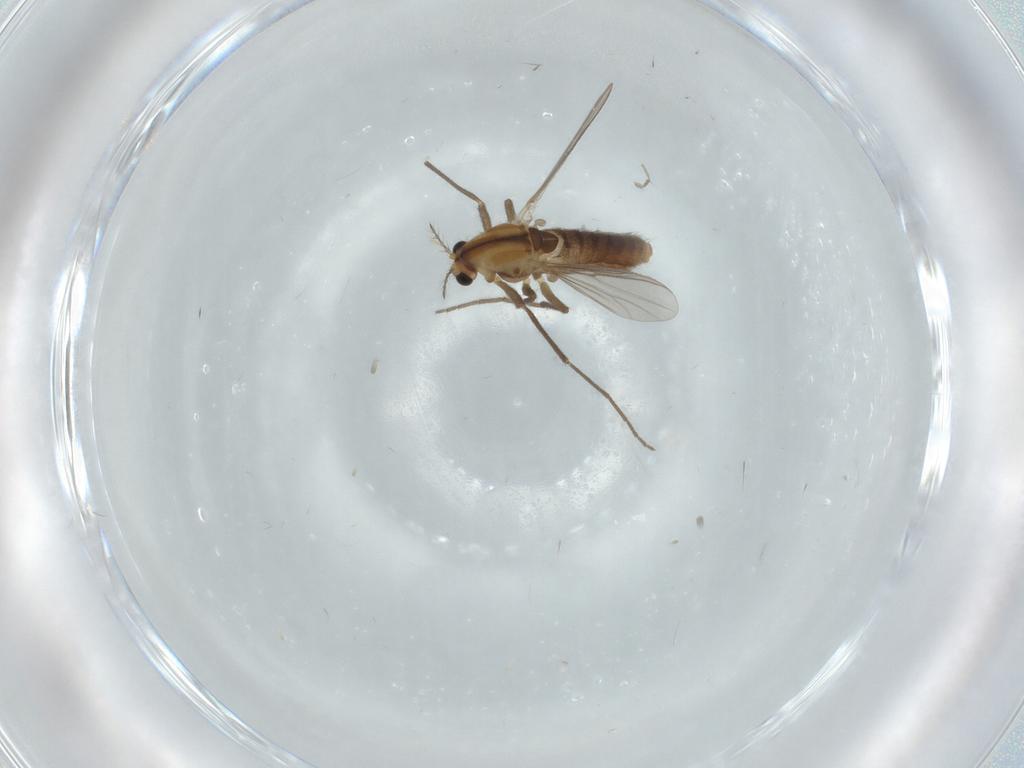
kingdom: Animalia
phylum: Arthropoda
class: Insecta
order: Diptera
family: Chironomidae
